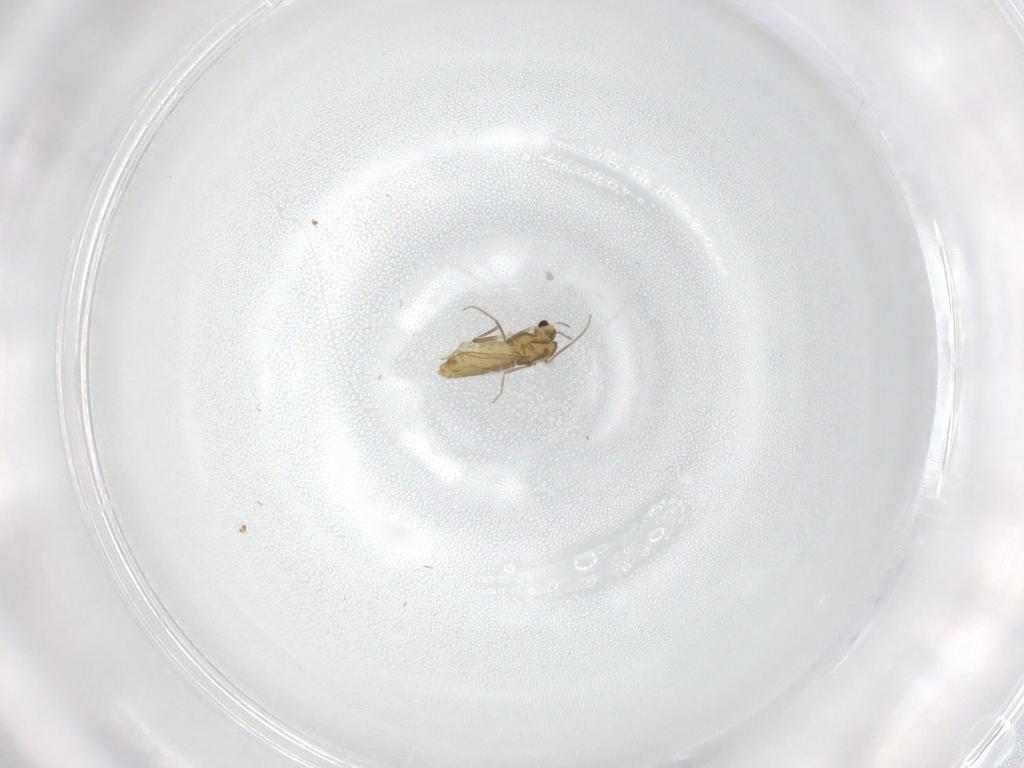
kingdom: Animalia
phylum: Arthropoda
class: Insecta
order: Diptera
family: Chironomidae
